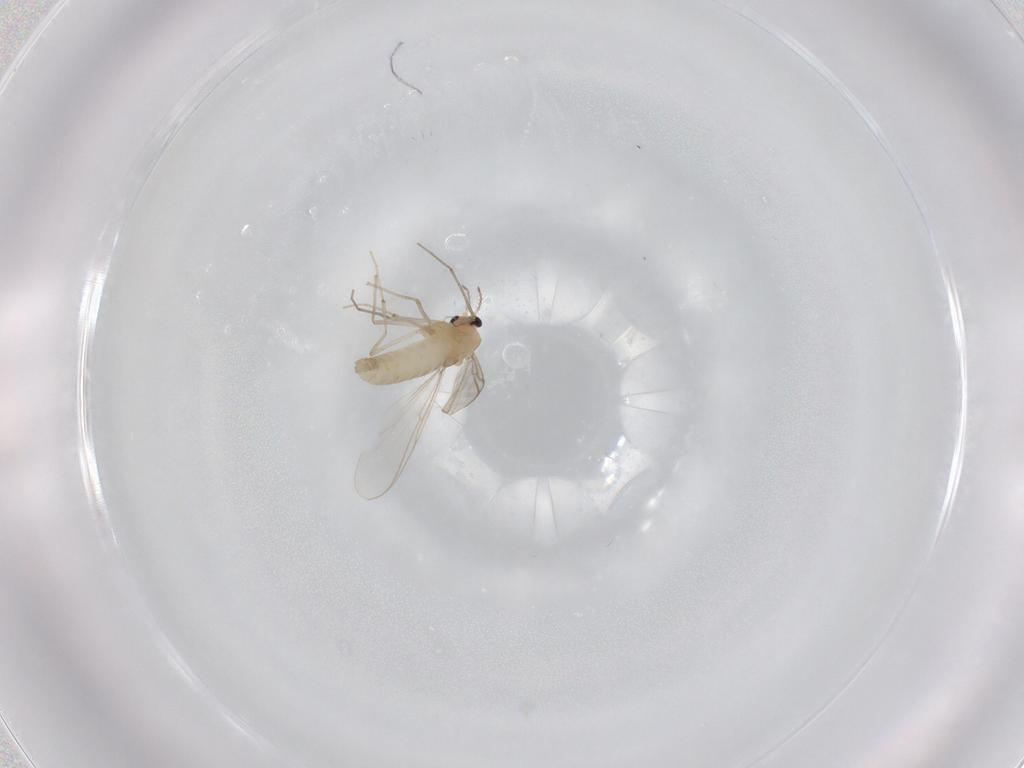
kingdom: Animalia
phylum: Arthropoda
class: Insecta
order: Diptera
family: Chironomidae
